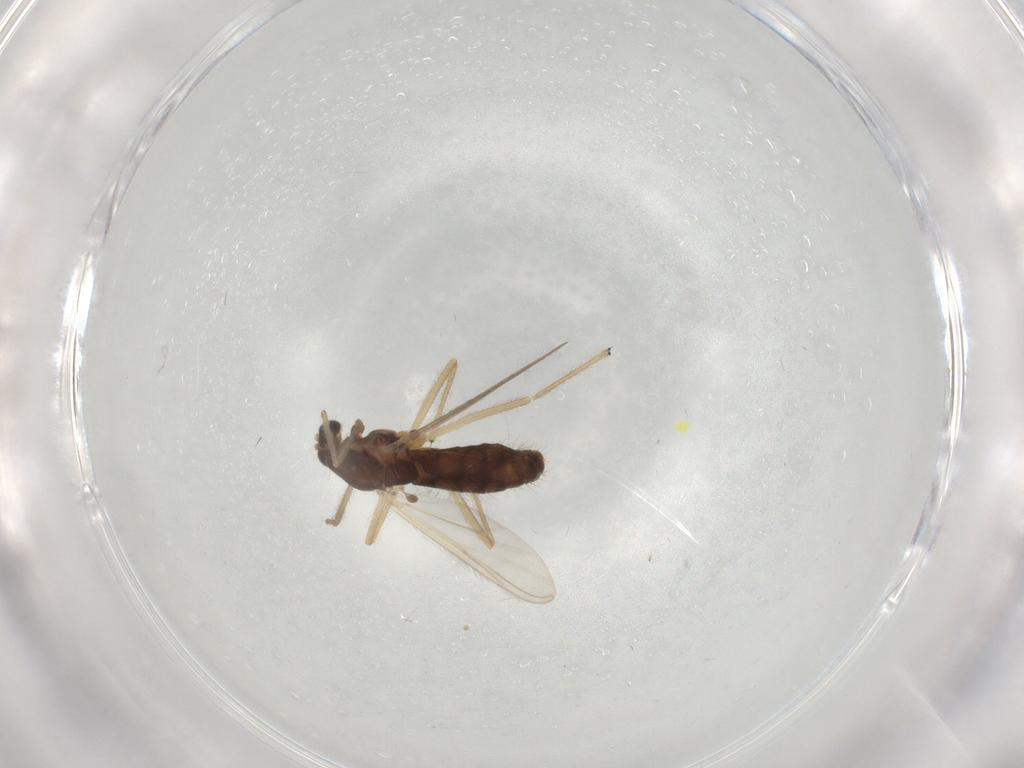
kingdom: Animalia
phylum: Arthropoda
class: Insecta
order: Diptera
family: Chironomidae
